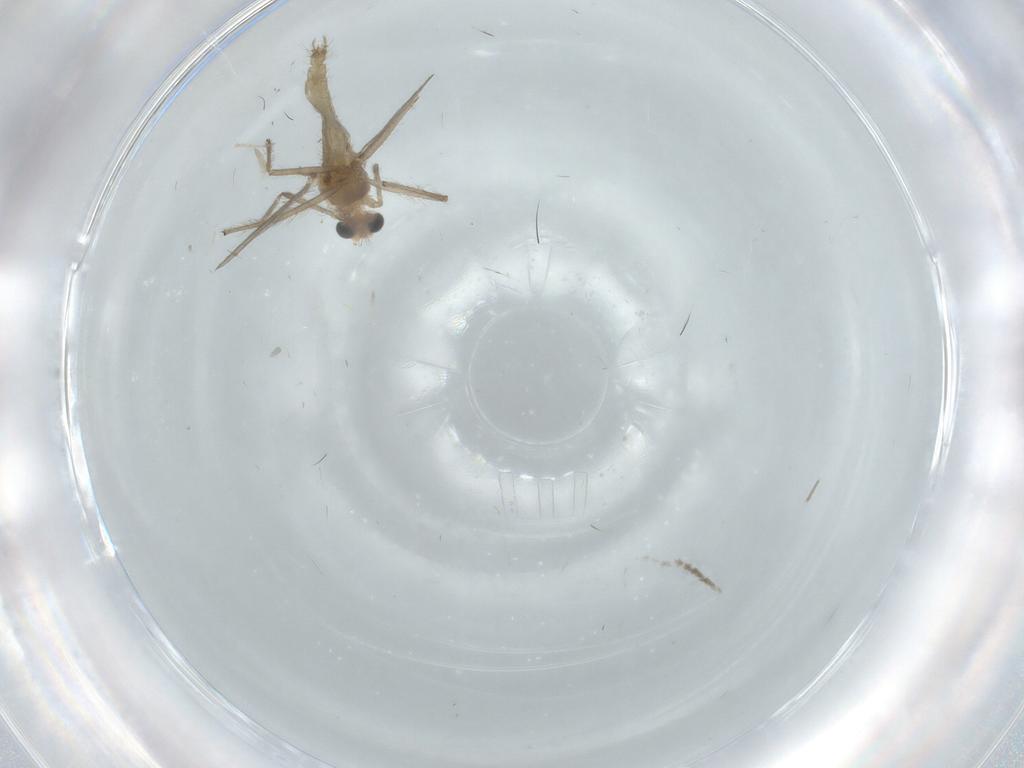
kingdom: Animalia
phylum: Arthropoda
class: Insecta
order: Diptera
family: Chironomidae
